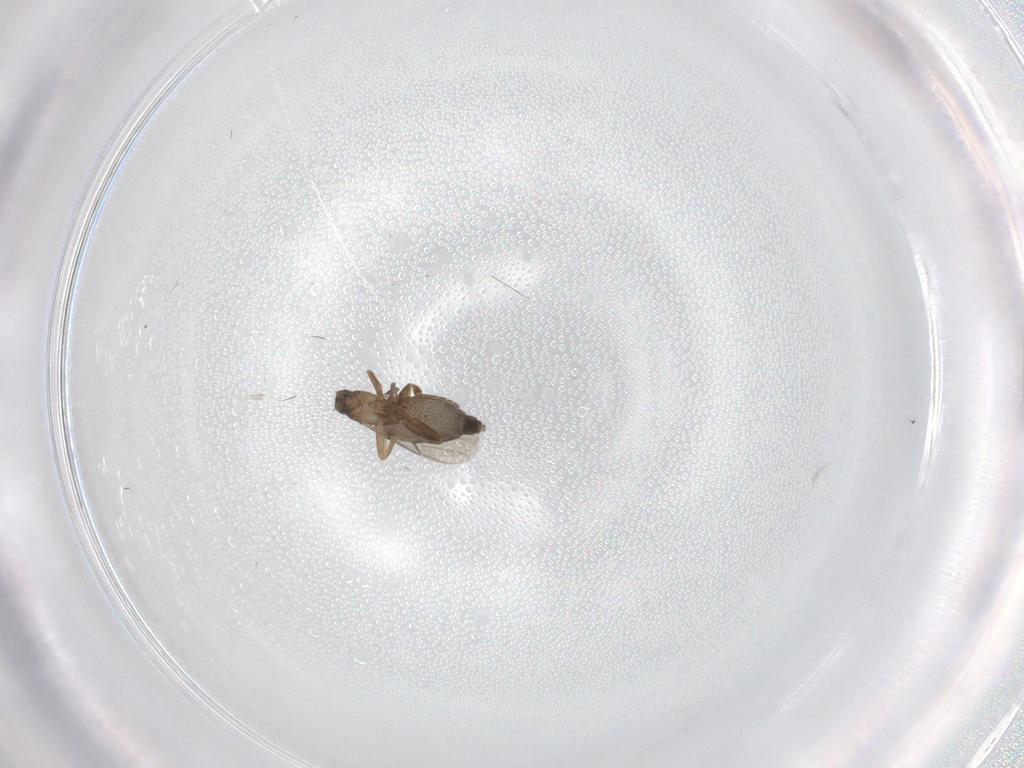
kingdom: Animalia
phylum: Arthropoda
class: Insecta
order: Diptera
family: Phoridae
